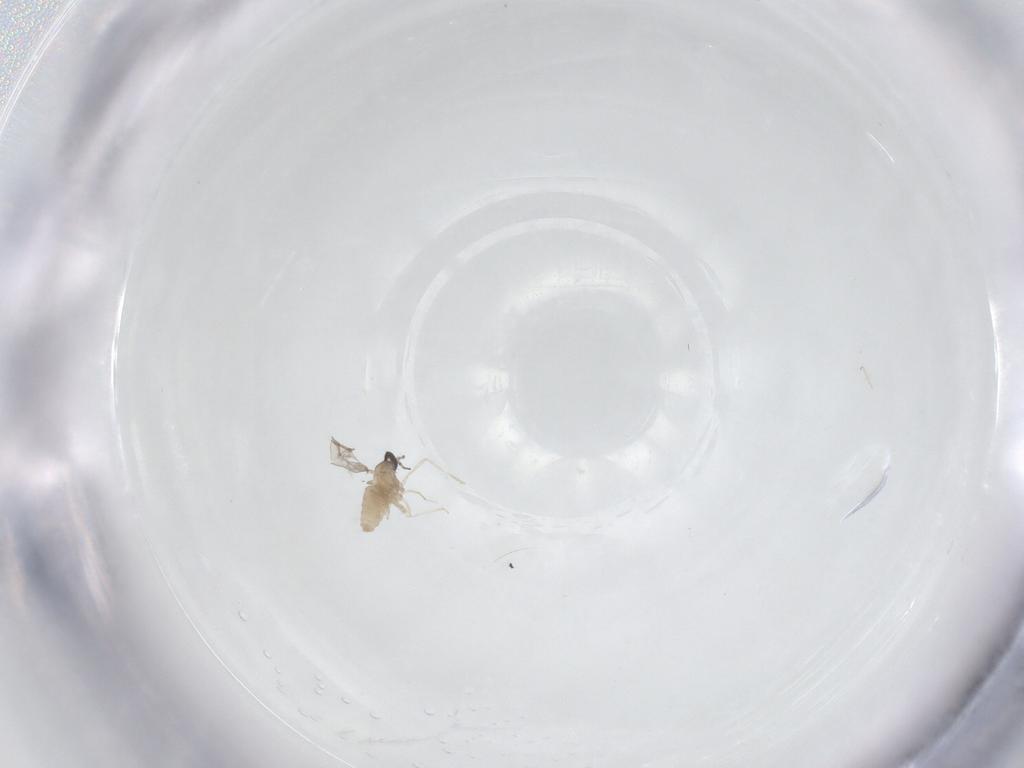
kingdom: Animalia
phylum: Arthropoda
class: Insecta
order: Diptera
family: Cecidomyiidae
